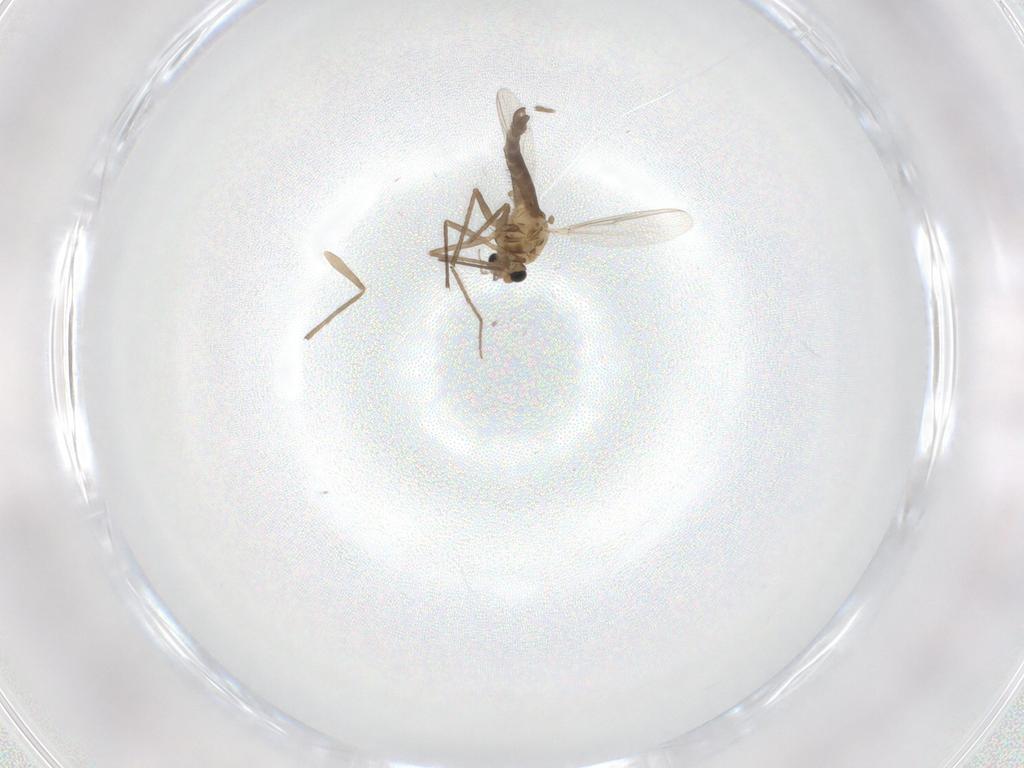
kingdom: Animalia
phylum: Arthropoda
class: Insecta
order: Diptera
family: Chironomidae
